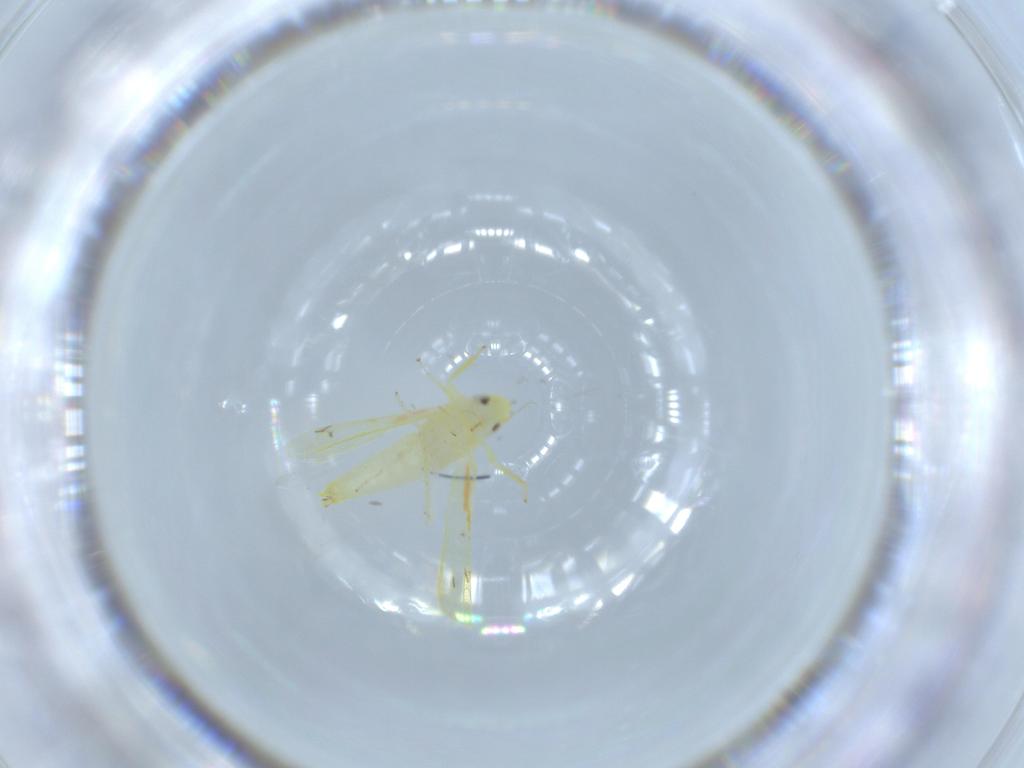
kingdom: Animalia
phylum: Arthropoda
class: Insecta
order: Hemiptera
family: Cicadellidae
